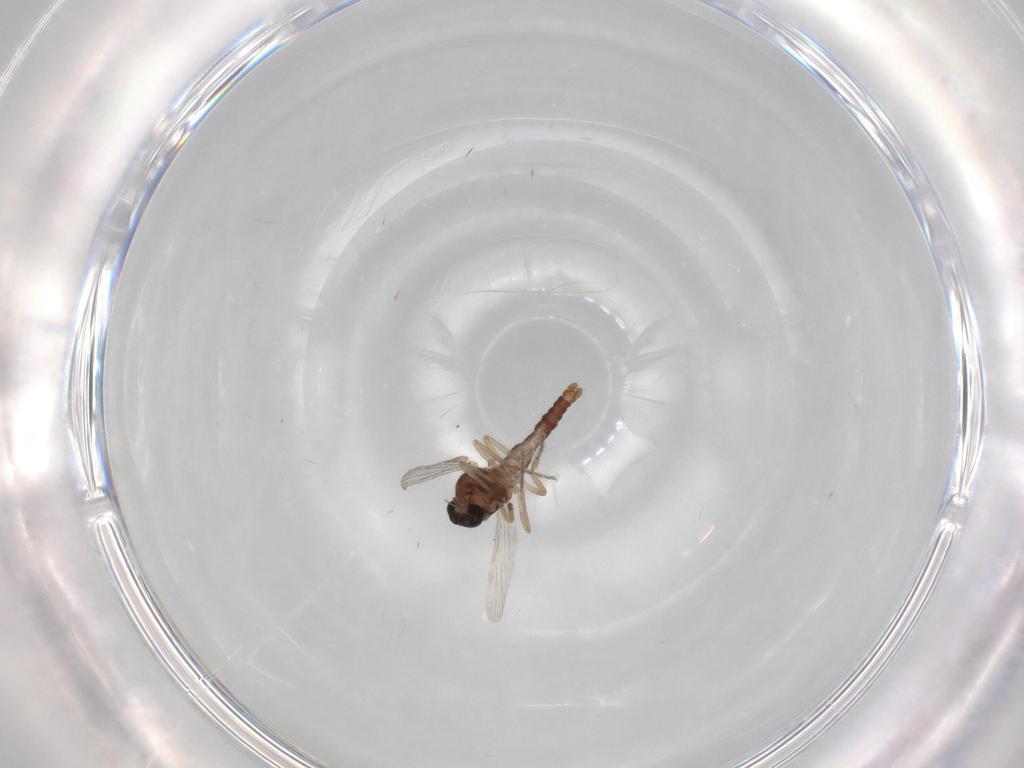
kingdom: Animalia
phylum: Arthropoda
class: Insecta
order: Diptera
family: Ceratopogonidae
